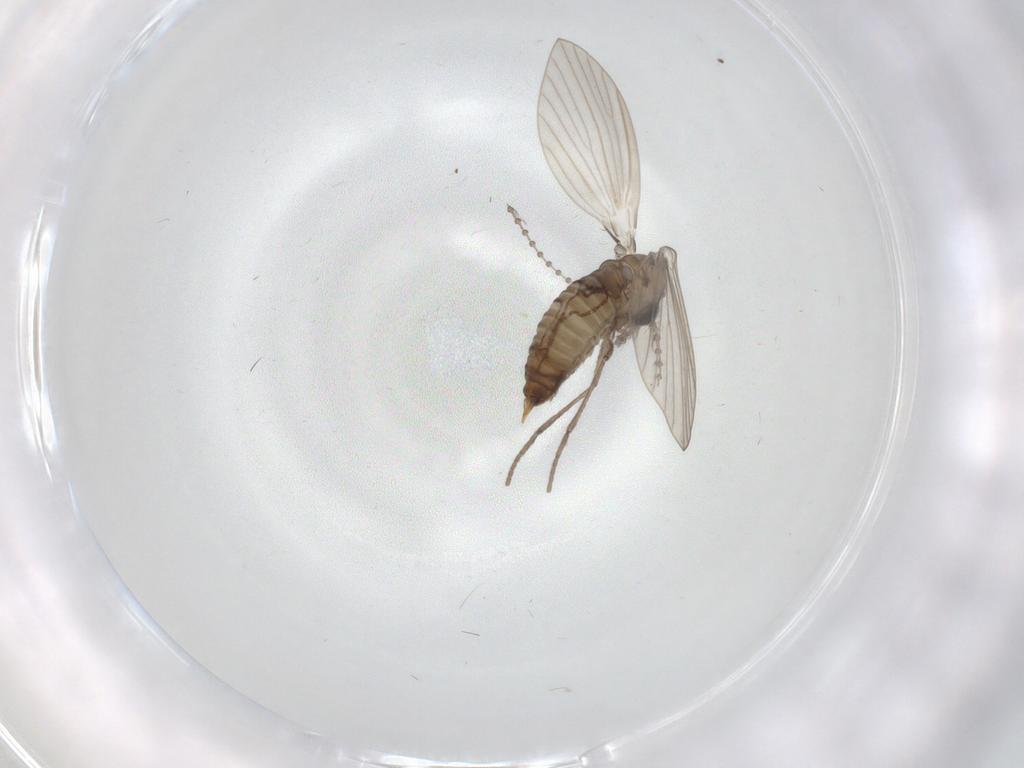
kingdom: Animalia
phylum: Arthropoda
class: Insecta
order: Diptera
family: Psychodidae
